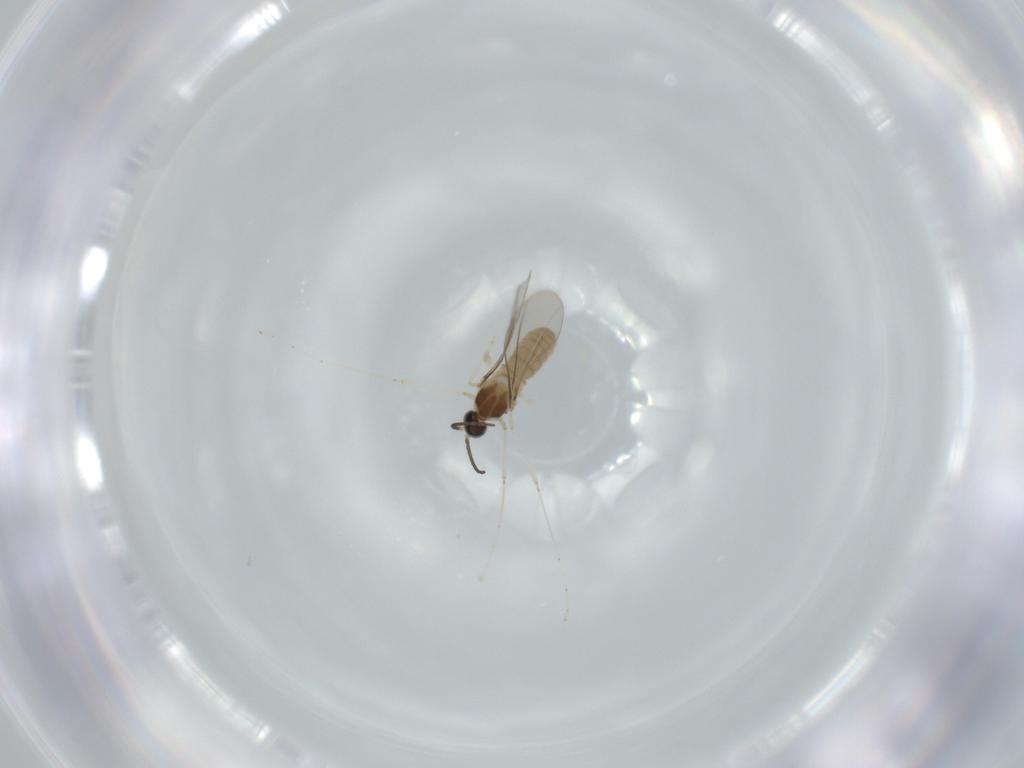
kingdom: Animalia
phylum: Arthropoda
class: Insecta
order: Diptera
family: Cecidomyiidae
